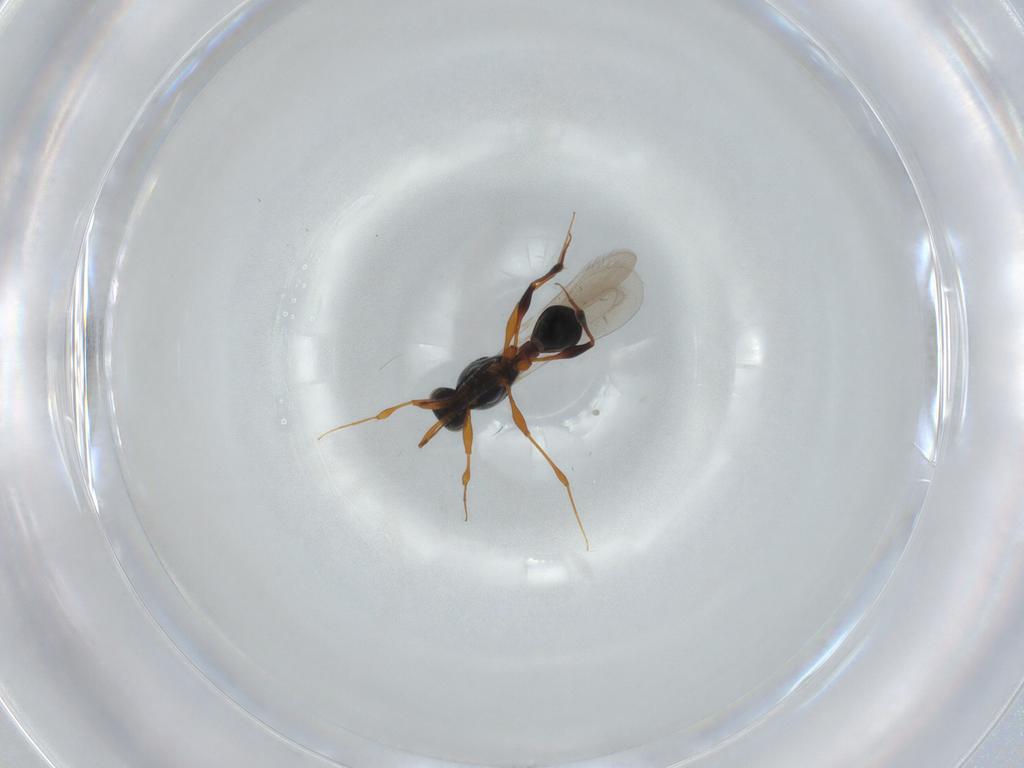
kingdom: Animalia
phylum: Arthropoda
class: Insecta
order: Hymenoptera
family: Platygastridae
